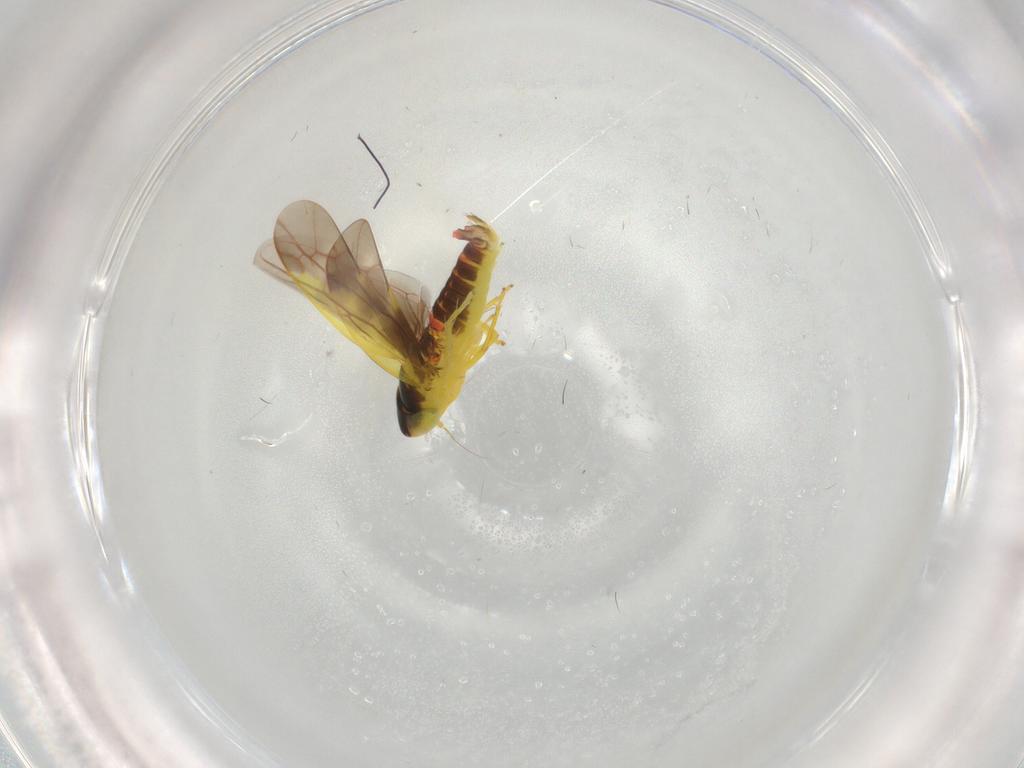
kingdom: Animalia
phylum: Arthropoda
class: Insecta
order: Hemiptera
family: Cicadellidae
